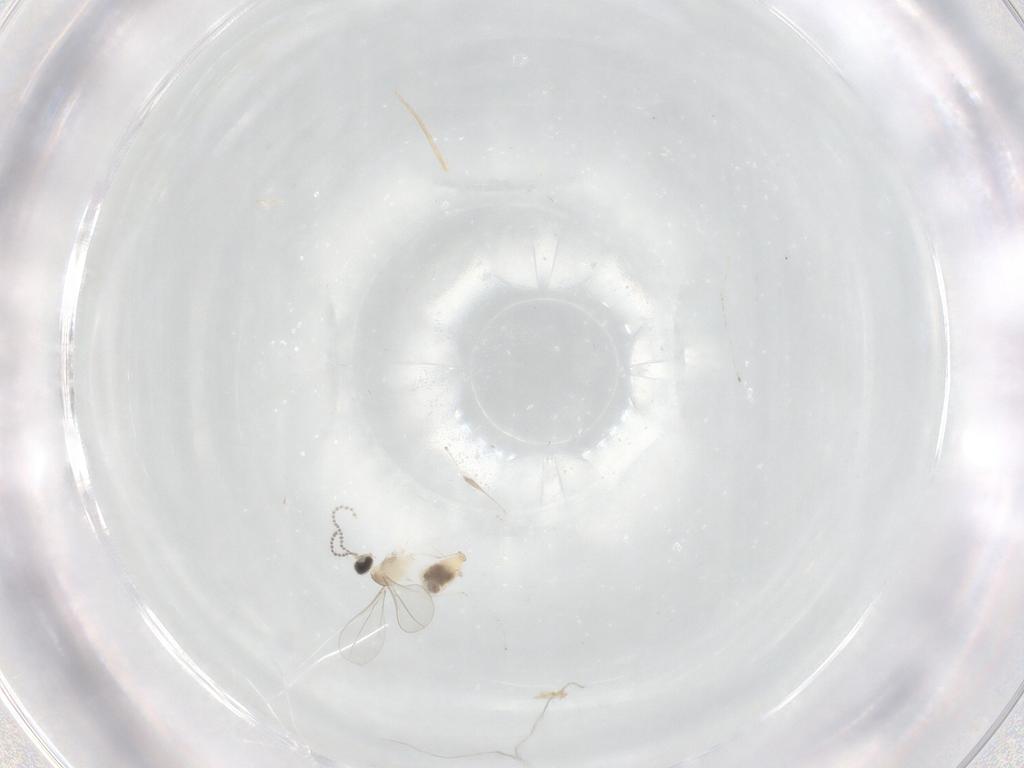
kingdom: Animalia
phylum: Arthropoda
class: Insecta
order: Diptera
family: Cecidomyiidae
